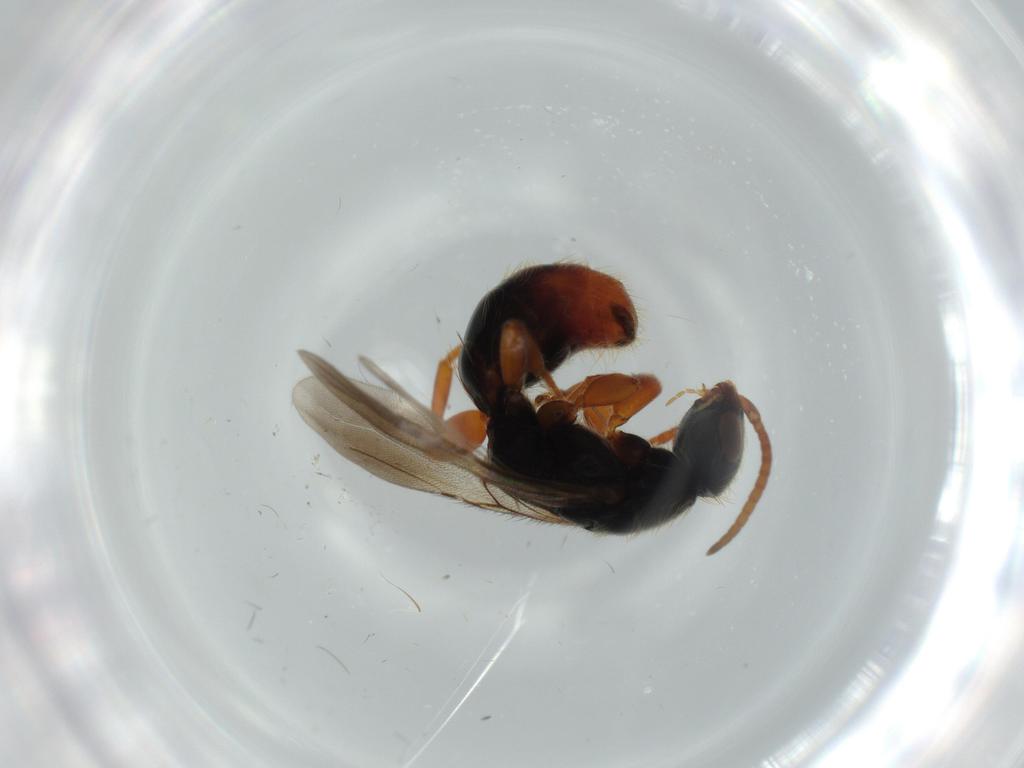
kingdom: Animalia
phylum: Arthropoda
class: Insecta
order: Hymenoptera
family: Bethylidae
